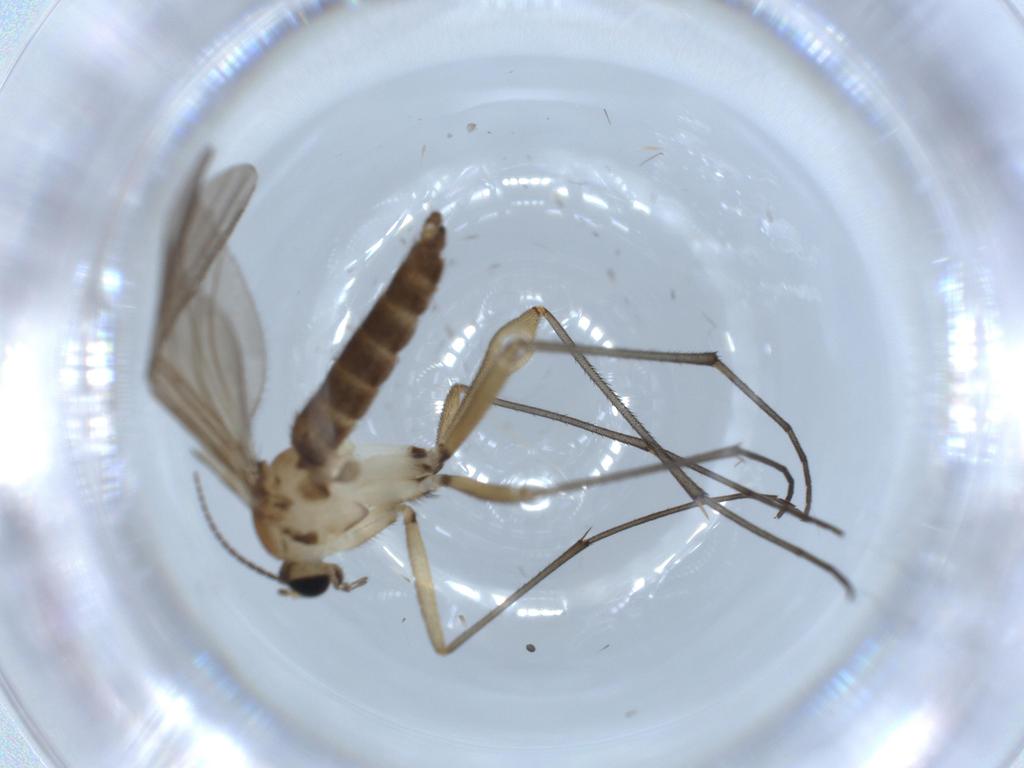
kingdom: Animalia
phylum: Arthropoda
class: Insecta
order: Diptera
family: Sciaridae
